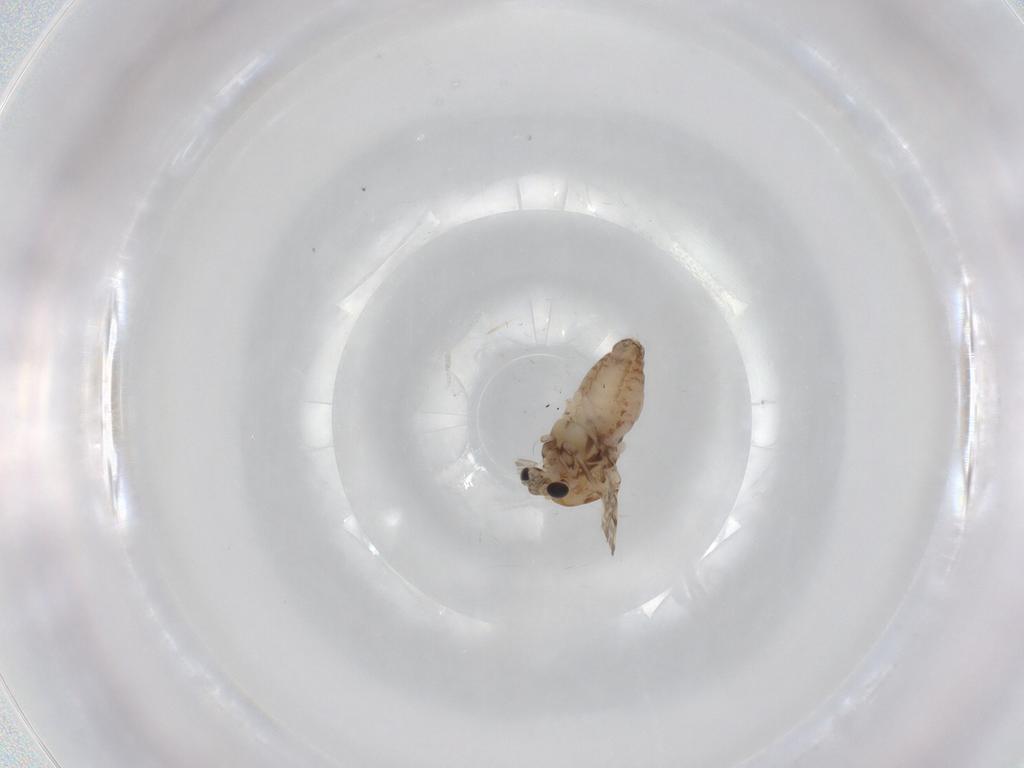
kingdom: Animalia
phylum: Arthropoda
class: Insecta
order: Diptera
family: Chironomidae
